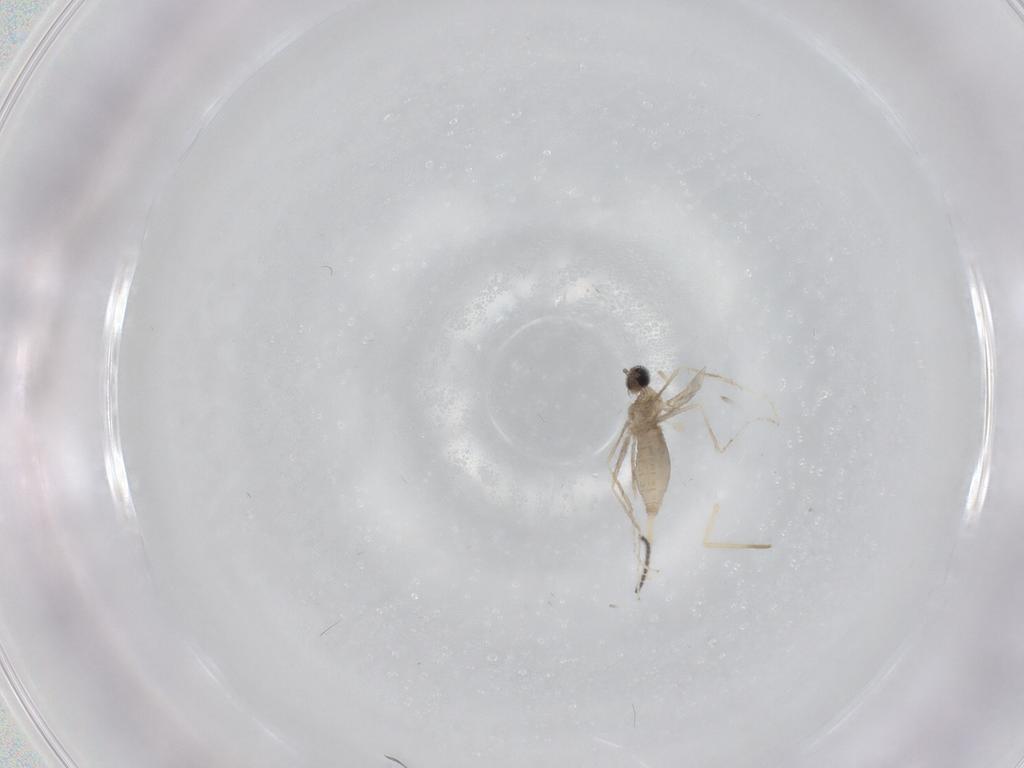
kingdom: Animalia
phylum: Arthropoda
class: Insecta
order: Diptera
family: Cecidomyiidae
